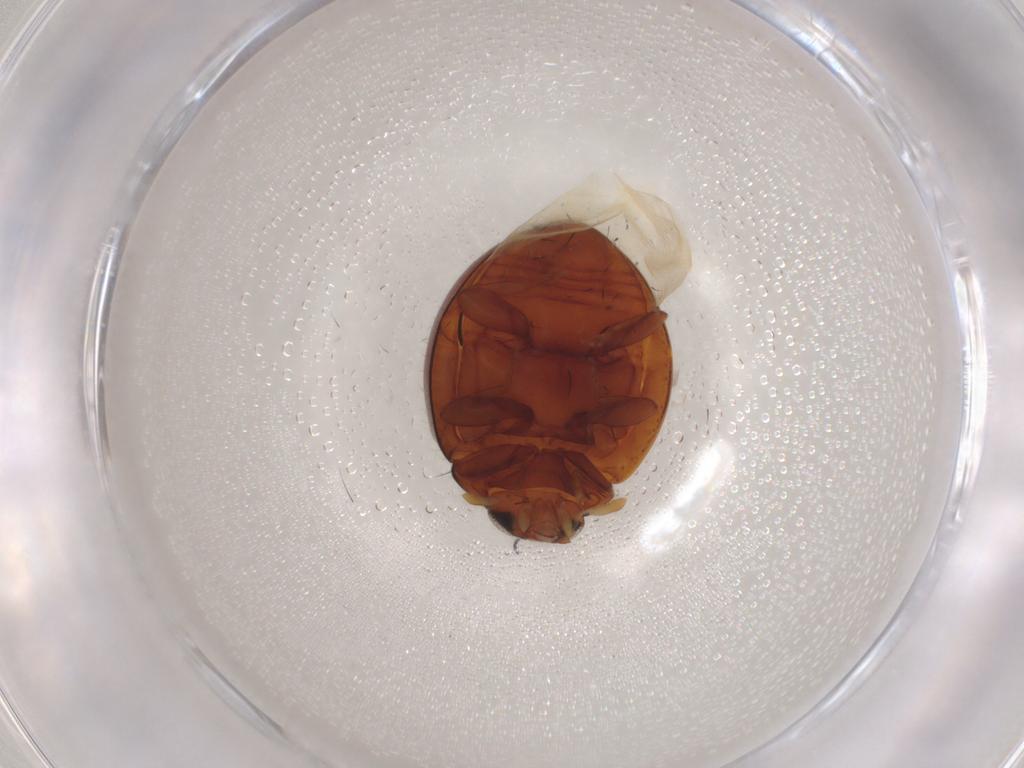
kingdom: Animalia
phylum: Arthropoda
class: Insecta
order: Coleoptera
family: Coccinellidae
